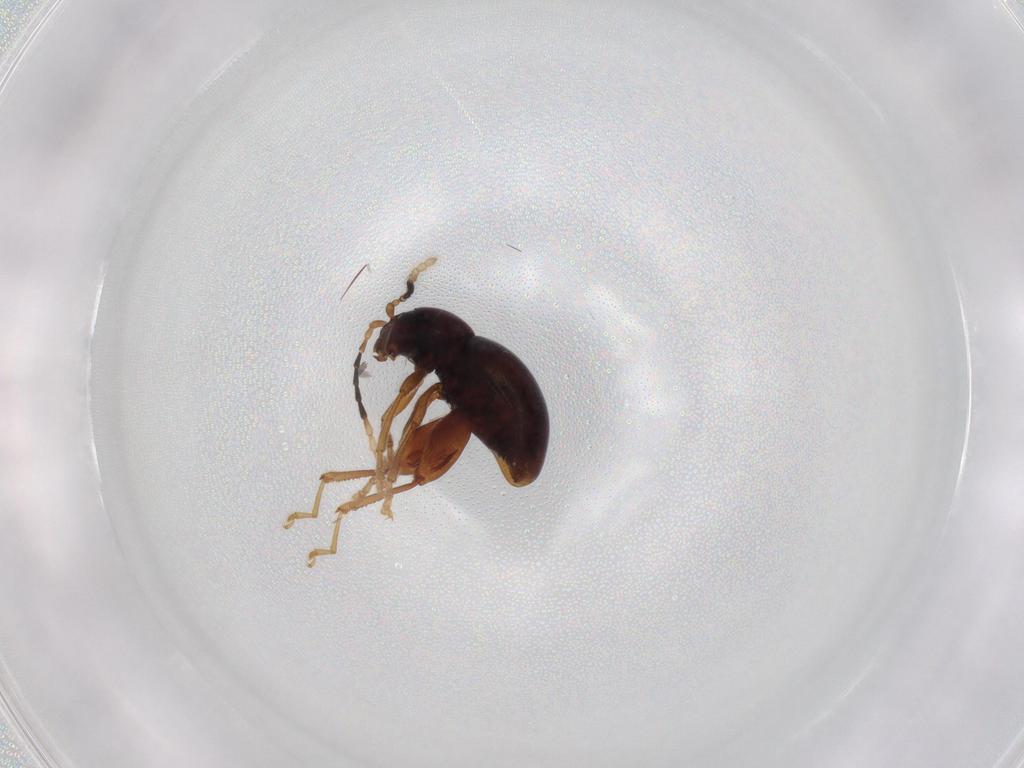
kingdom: Animalia
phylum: Arthropoda
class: Insecta
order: Coleoptera
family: Chrysomelidae
